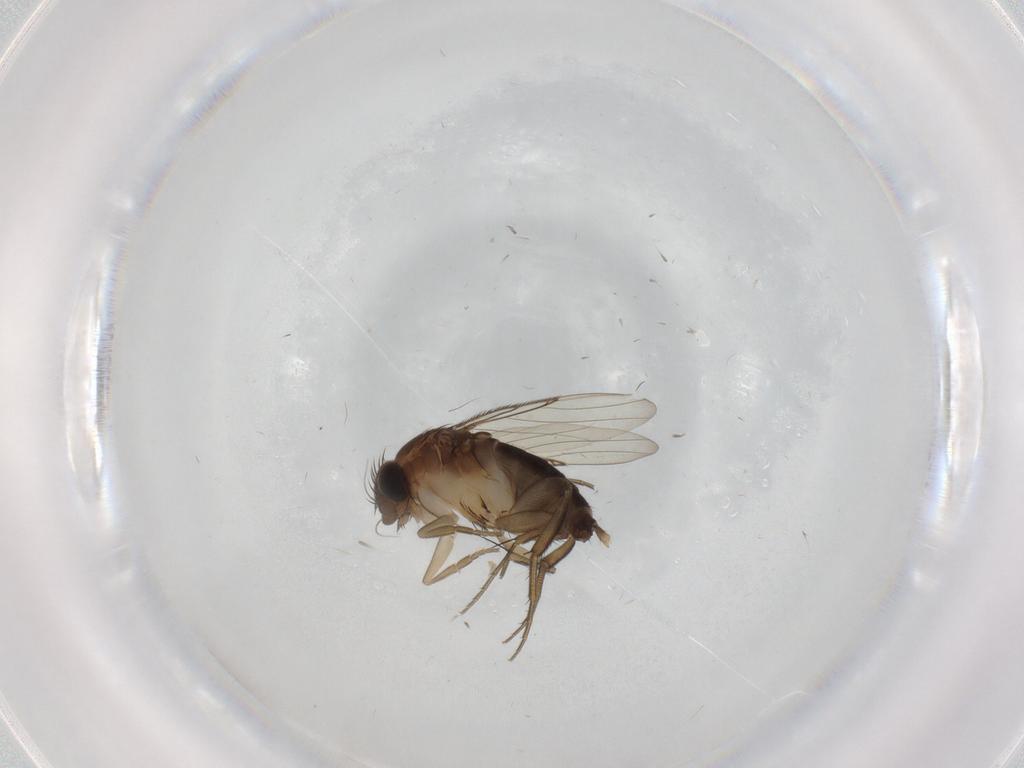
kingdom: Animalia
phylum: Arthropoda
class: Insecta
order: Diptera
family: Phoridae
